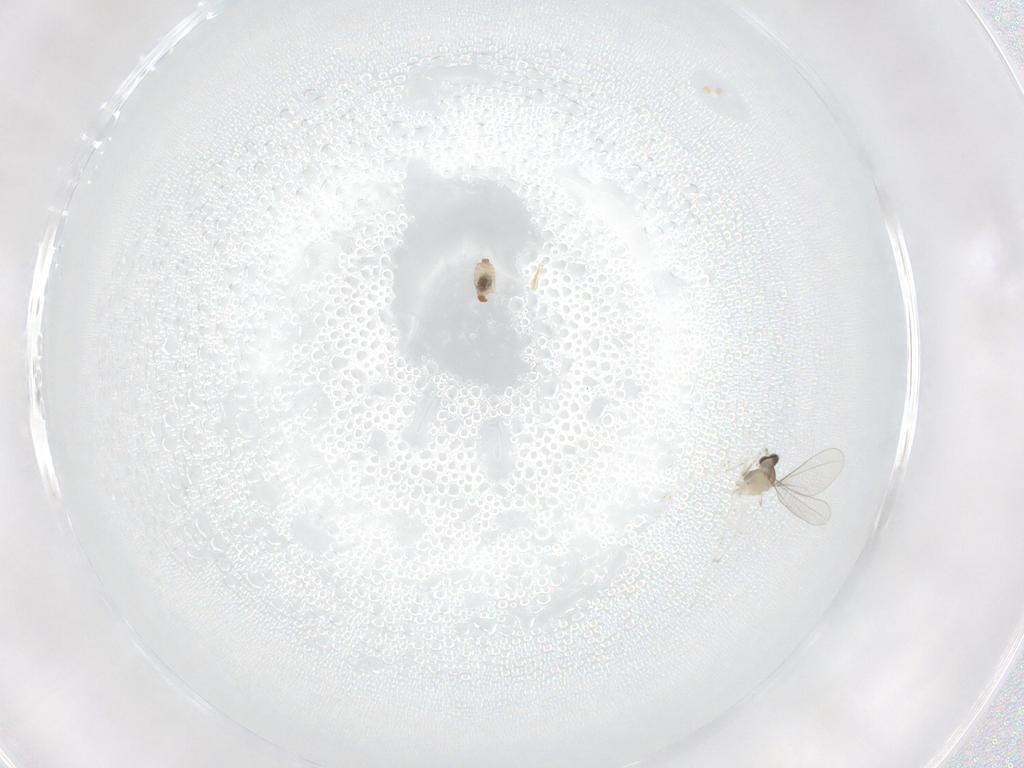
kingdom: Animalia
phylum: Arthropoda
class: Insecta
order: Diptera
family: Cecidomyiidae
